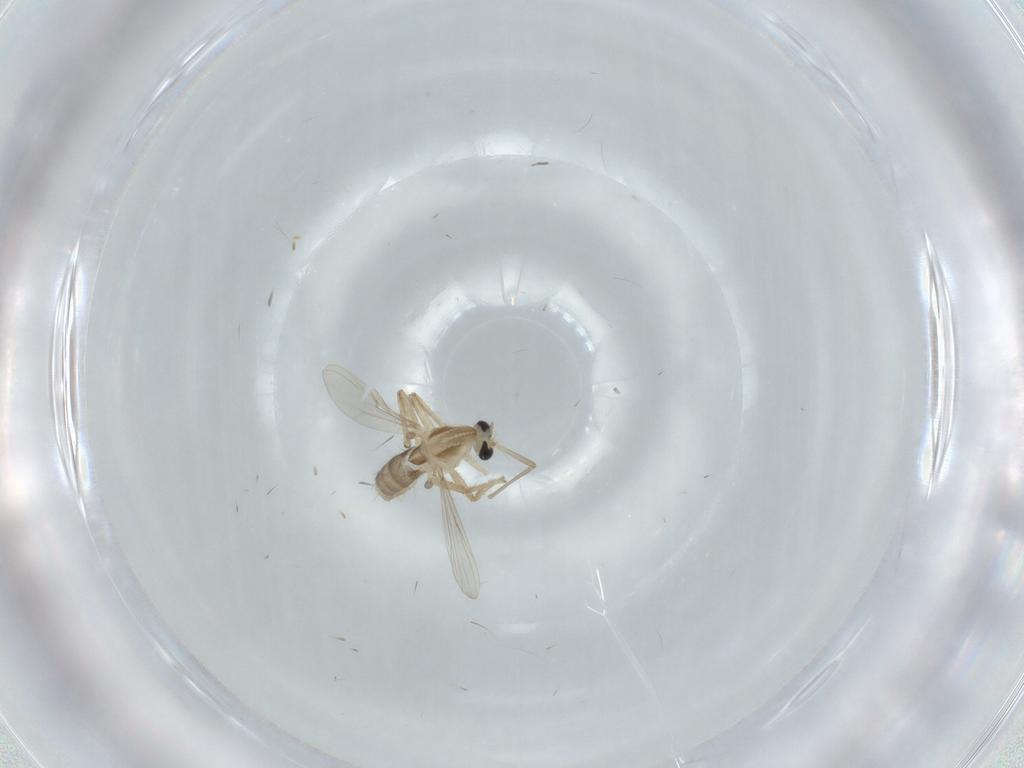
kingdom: Animalia
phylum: Arthropoda
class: Insecta
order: Diptera
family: Chironomidae
